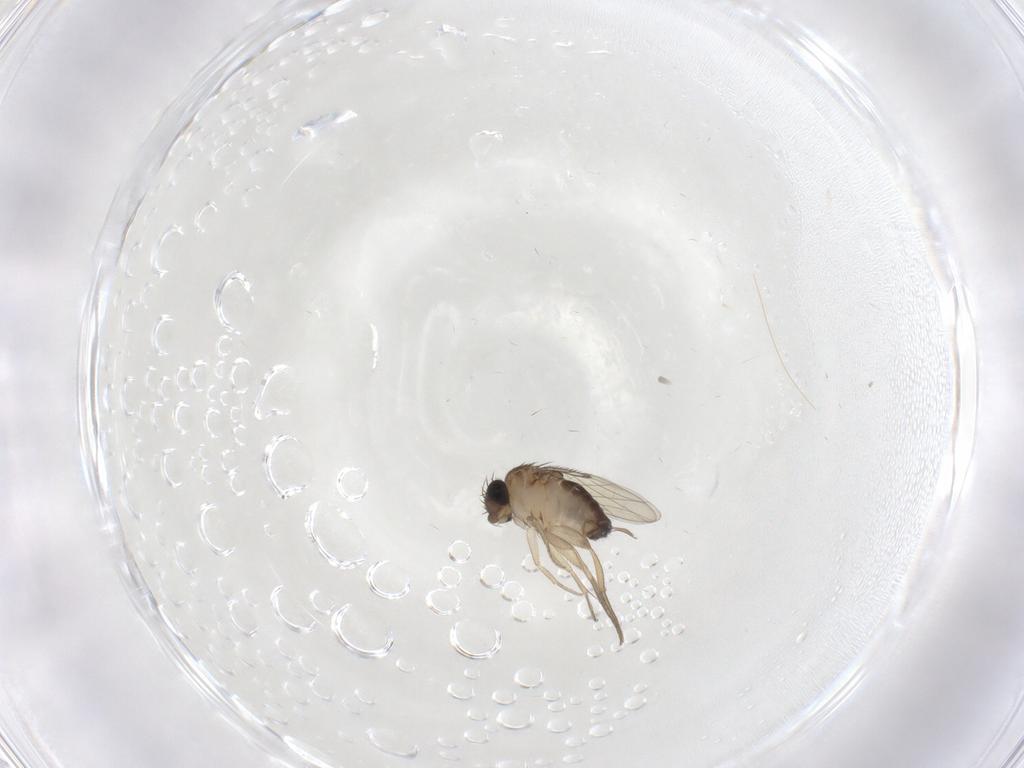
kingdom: Animalia
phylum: Arthropoda
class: Insecta
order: Diptera
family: Phoridae
